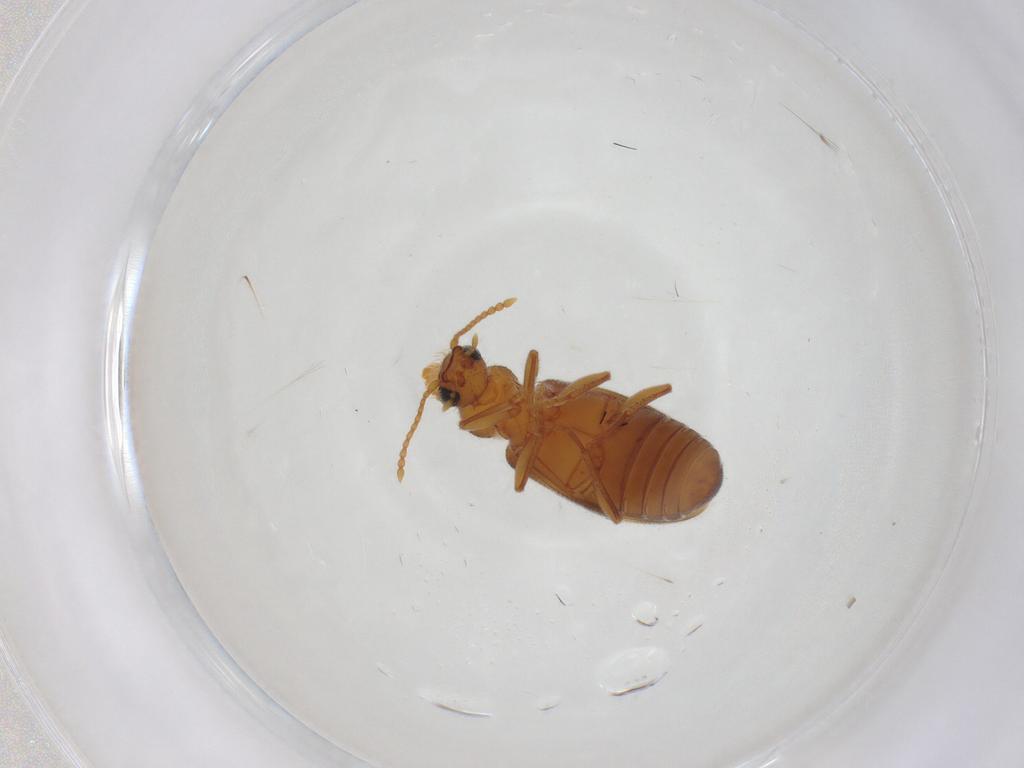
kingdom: Animalia
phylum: Arthropoda
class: Insecta
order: Coleoptera
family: Anthicidae
